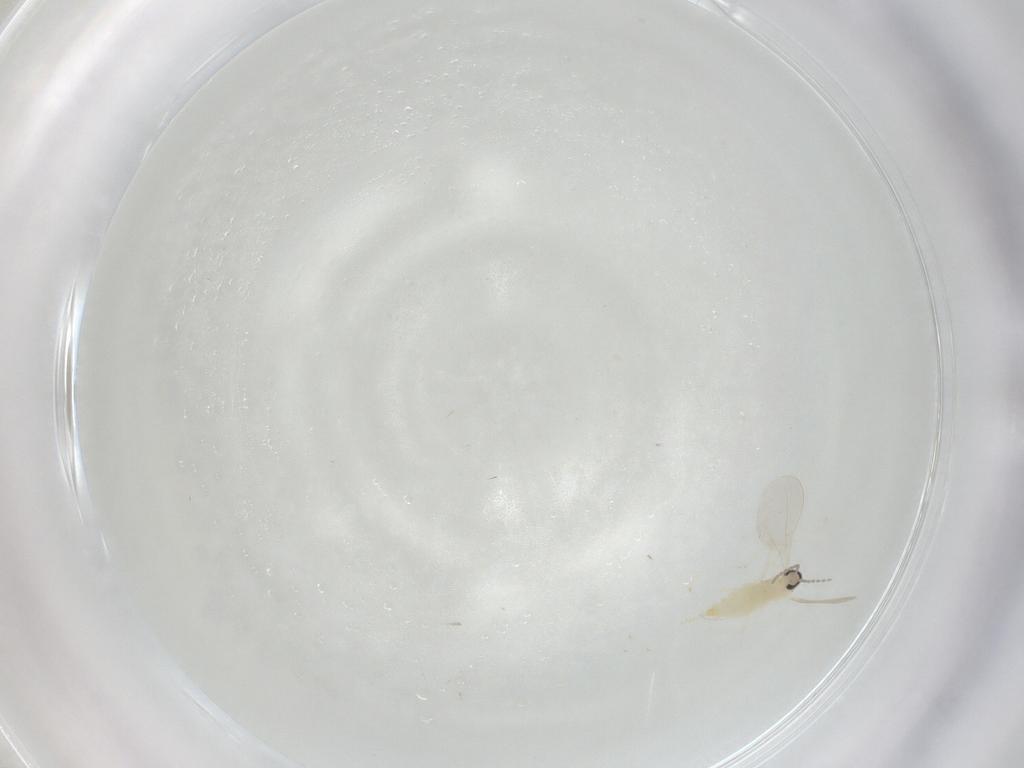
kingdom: Animalia
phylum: Arthropoda
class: Insecta
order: Diptera
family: Cecidomyiidae
